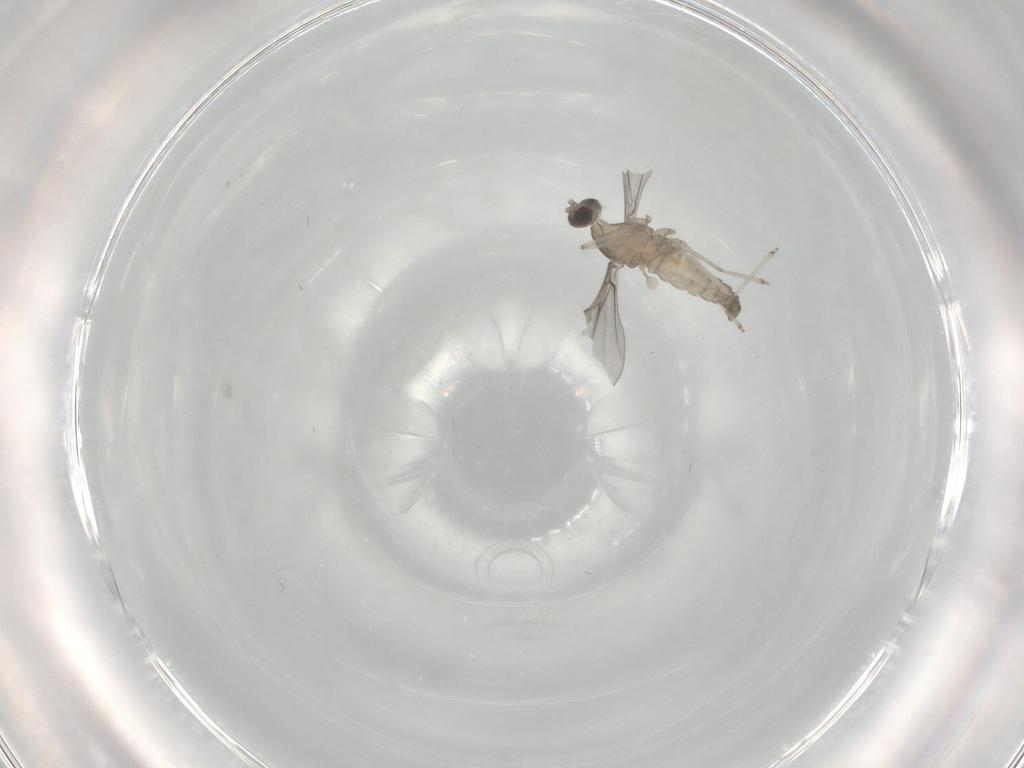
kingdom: Animalia
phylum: Arthropoda
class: Insecta
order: Diptera
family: Cecidomyiidae
